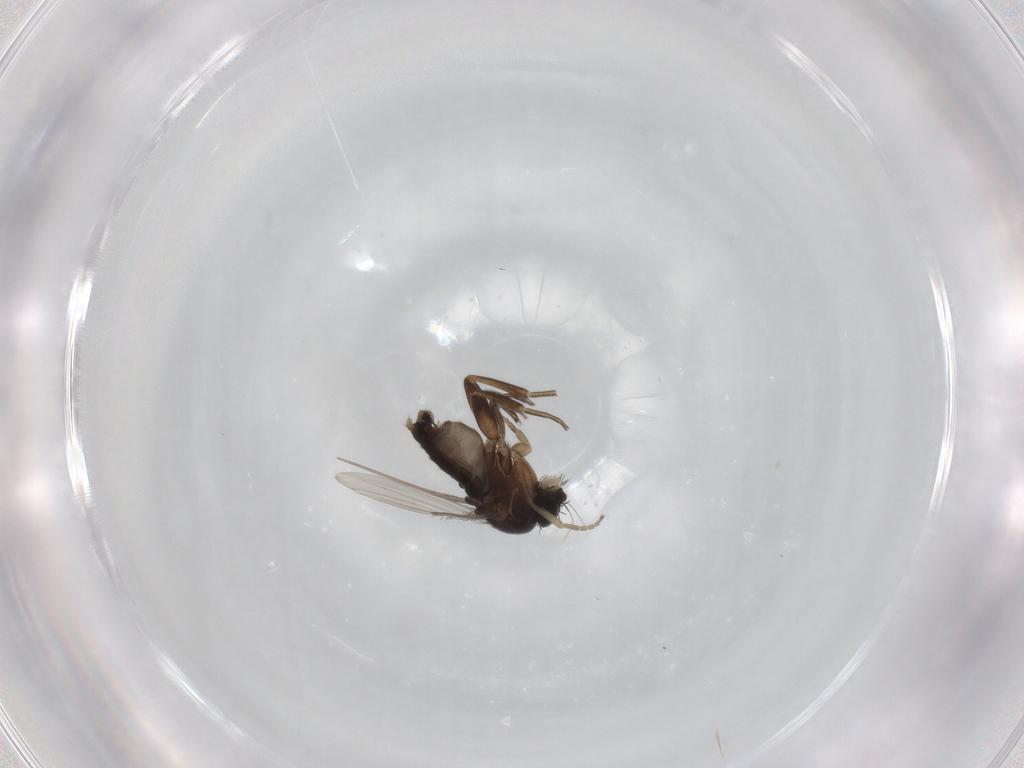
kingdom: Animalia
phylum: Arthropoda
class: Insecta
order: Diptera
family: Phoridae
